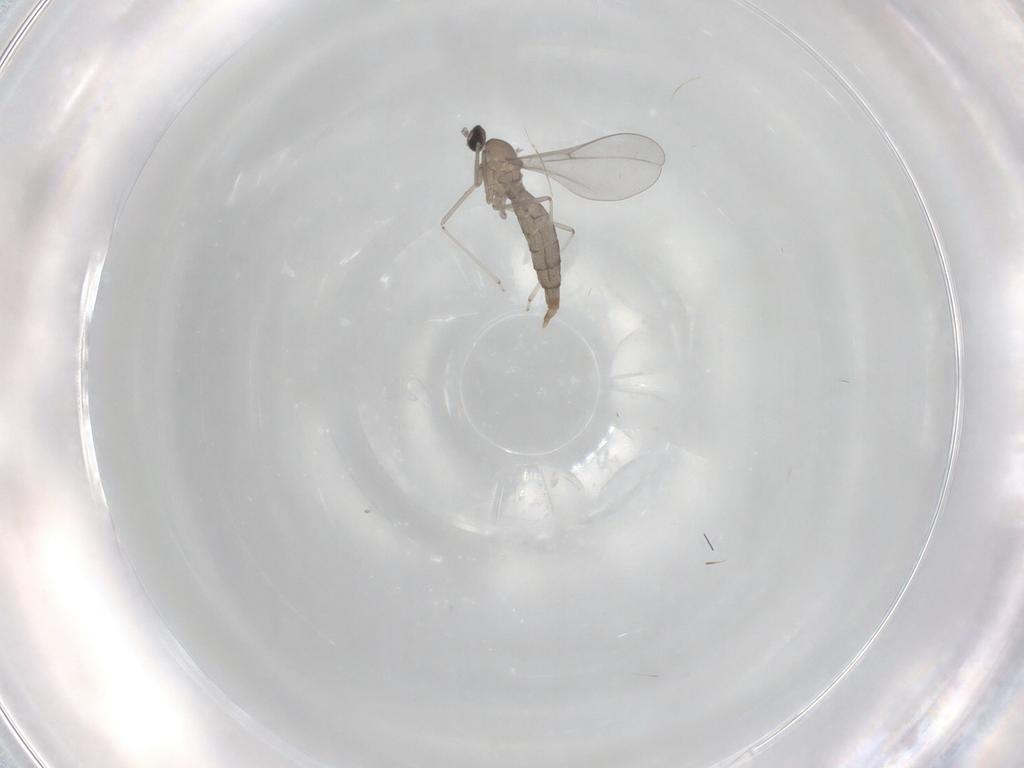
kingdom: Animalia
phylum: Arthropoda
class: Insecta
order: Diptera
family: Cecidomyiidae
